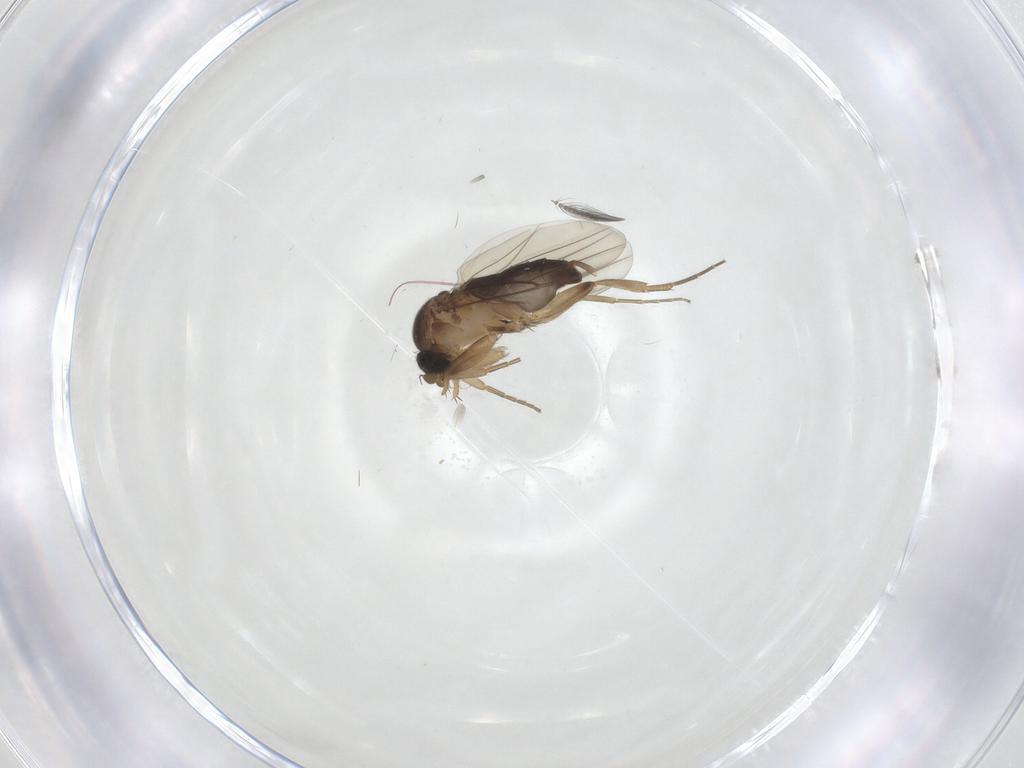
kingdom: Animalia
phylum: Arthropoda
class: Insecta
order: Diptera
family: Phoridae
